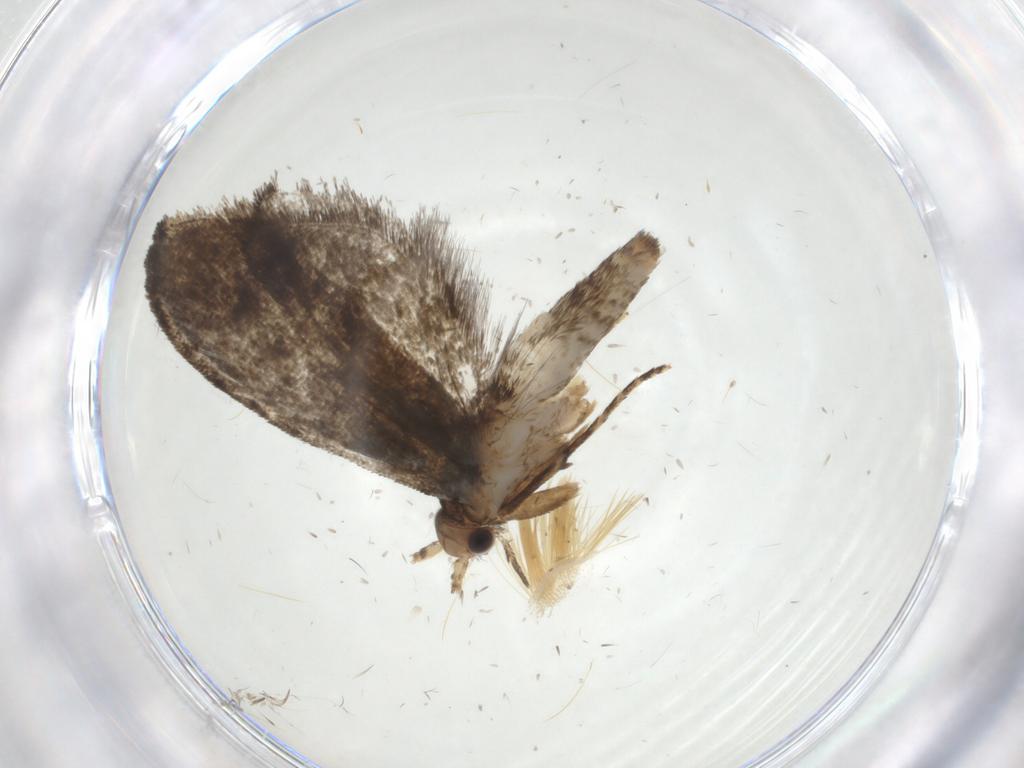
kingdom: Animalia
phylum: Arthropoda
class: Insecta
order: Lepidoptera
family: Tineidae
